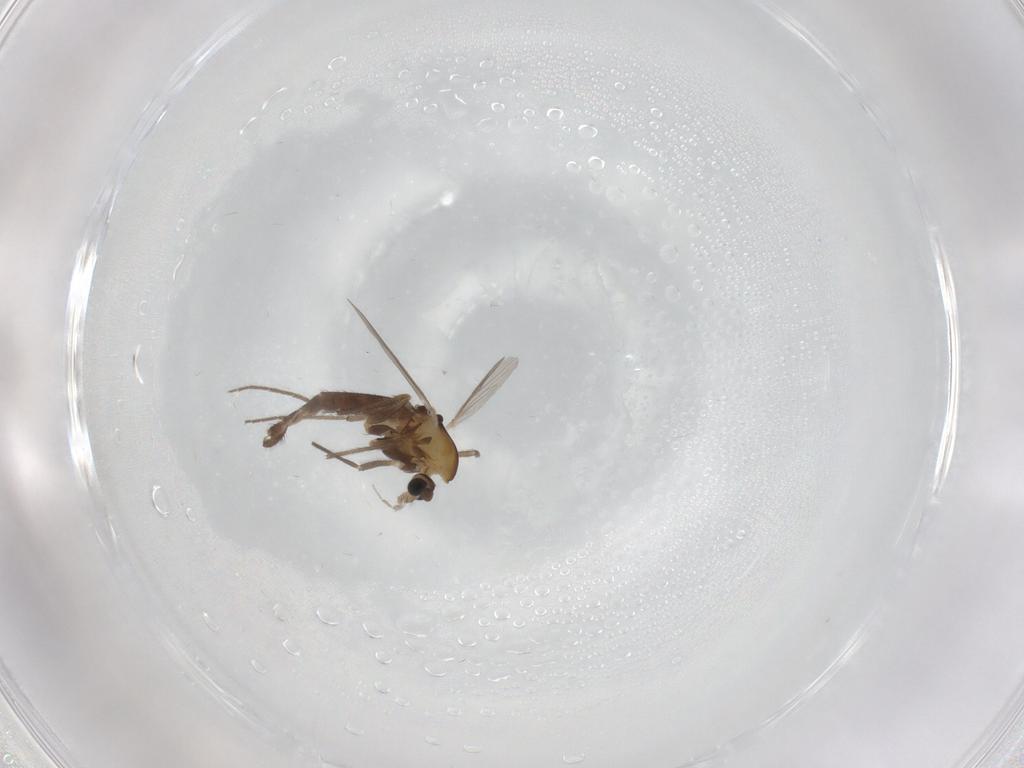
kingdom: Animalia
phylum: Arthropoda
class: Insecta
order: Diptera
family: Chironomidae
